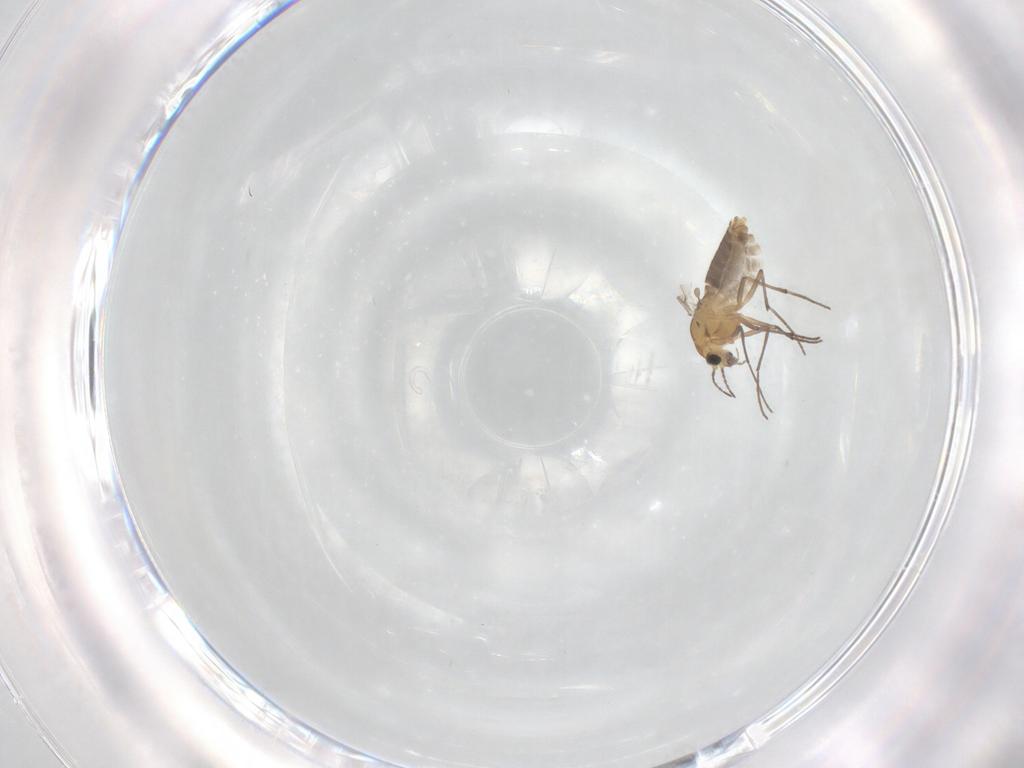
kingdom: Animalia
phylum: Arthropoda
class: Insecta
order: Diptera
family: Chironomidae
